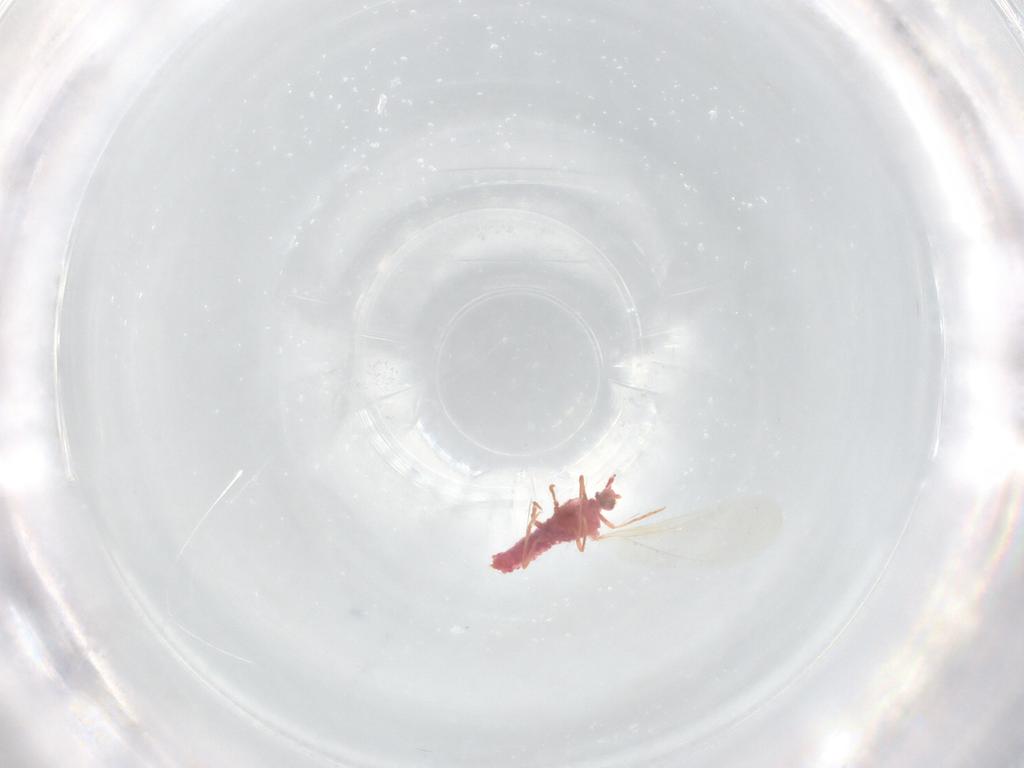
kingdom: Animalia
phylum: Arthropoda
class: Insecta
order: Hemiptera
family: Coccoidea_incertae_sedis
